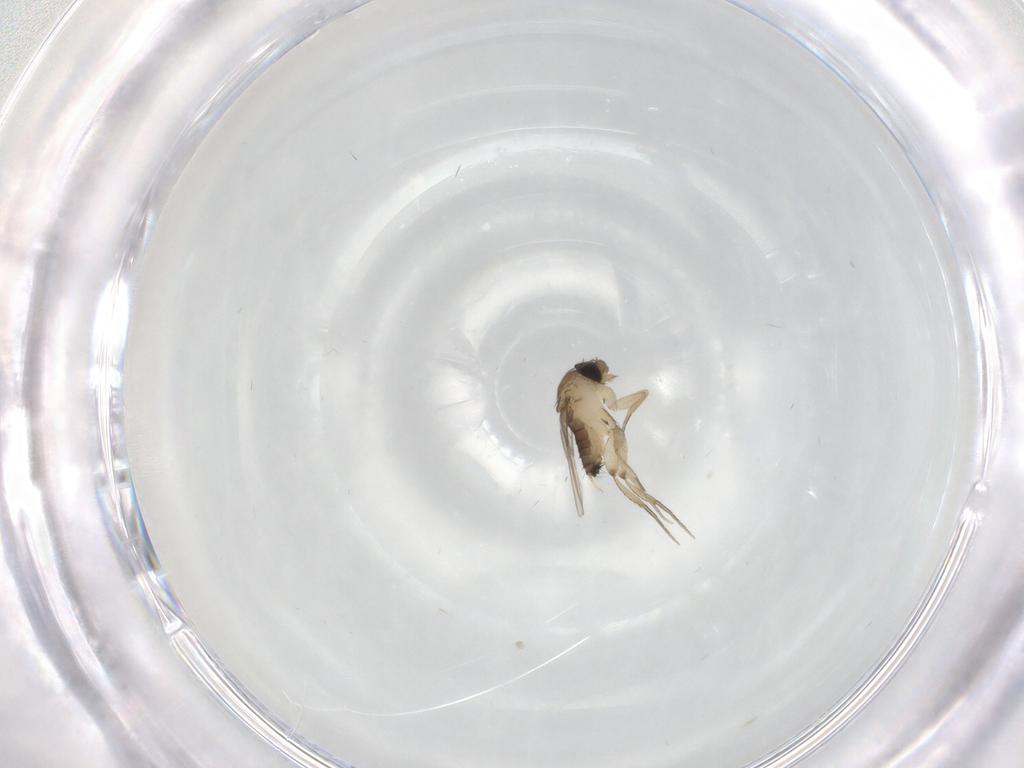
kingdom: Animalia
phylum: Arthropoda
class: Insecta
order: Diptera
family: Phoridae
